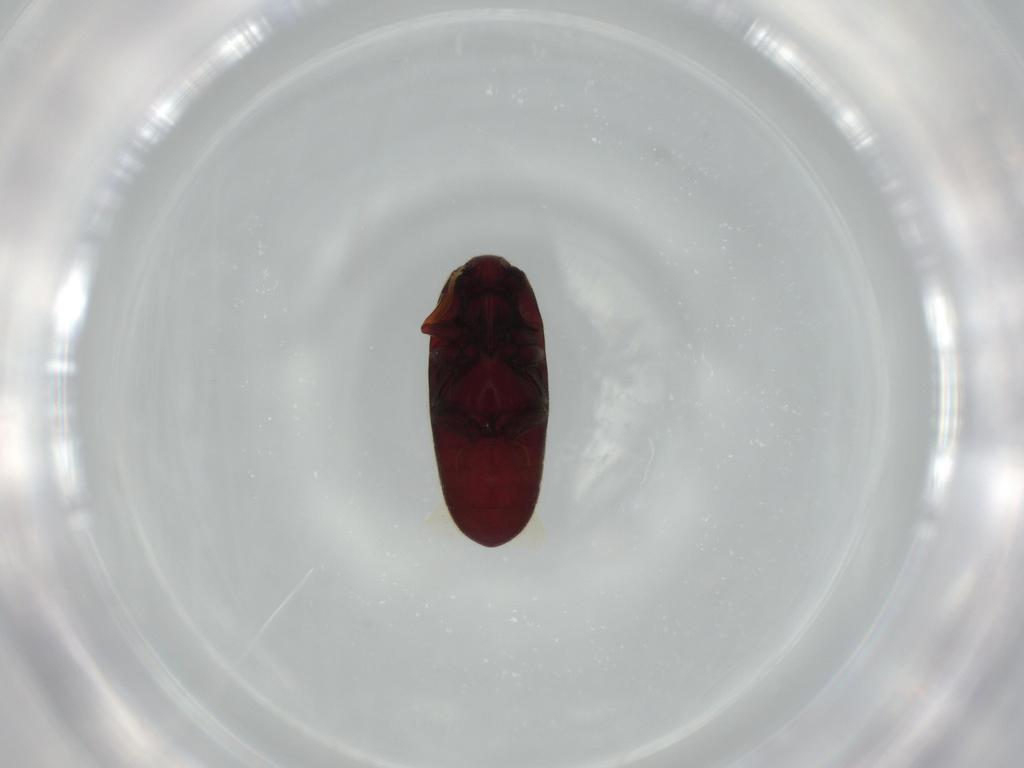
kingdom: Animalia
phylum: Arthropoda
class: Insecta
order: Coleoptera
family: Throscidae
